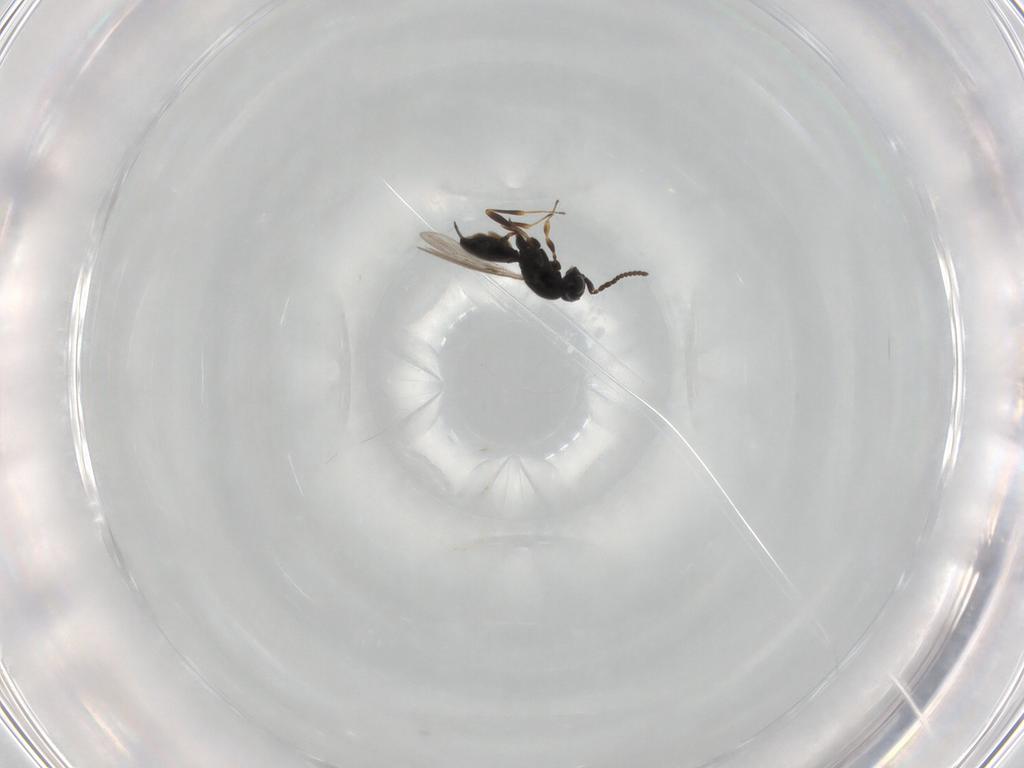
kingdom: Animalia
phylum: Arthropoda
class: Insecta
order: Hymenoptera
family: Scelionidae
